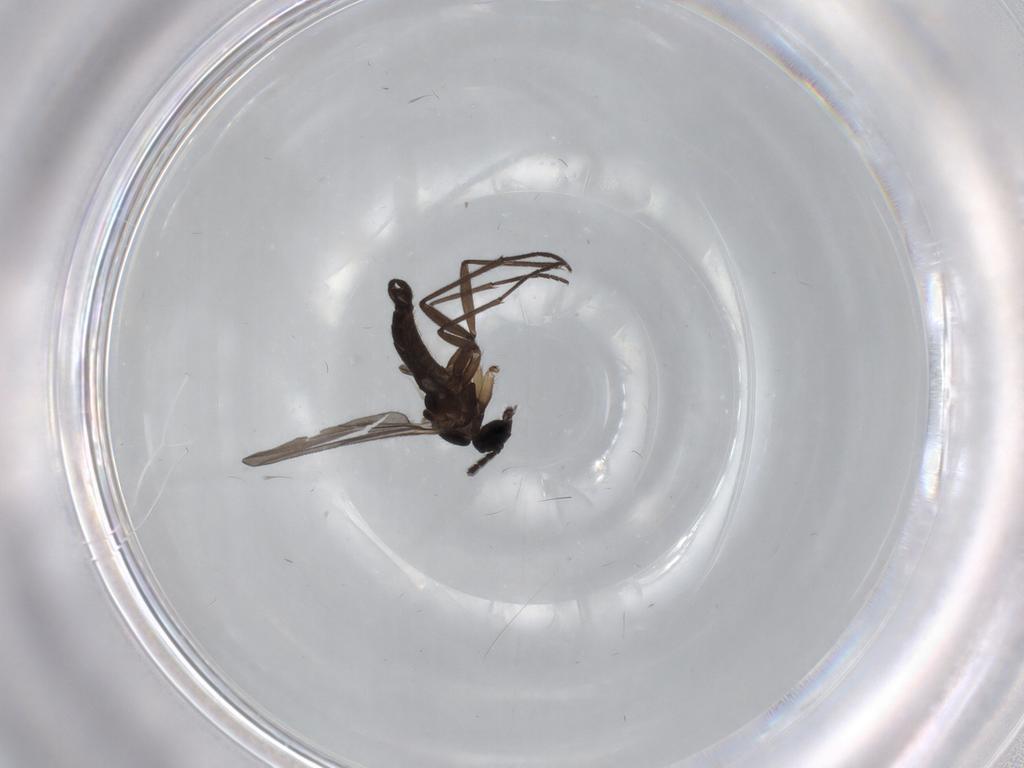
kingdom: Animalia
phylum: Arthropoda
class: Insecta
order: Diptera
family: Sciaridae
